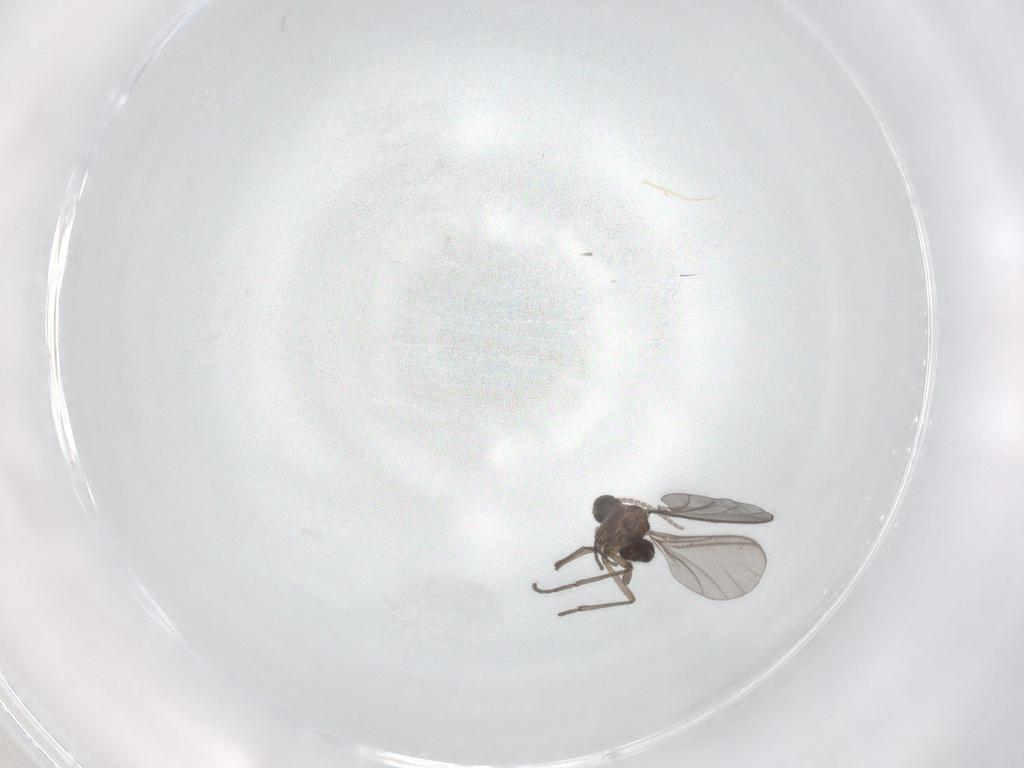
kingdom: Animalia
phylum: Arthropoda
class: Insecta
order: Diptera
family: Sciaridae
